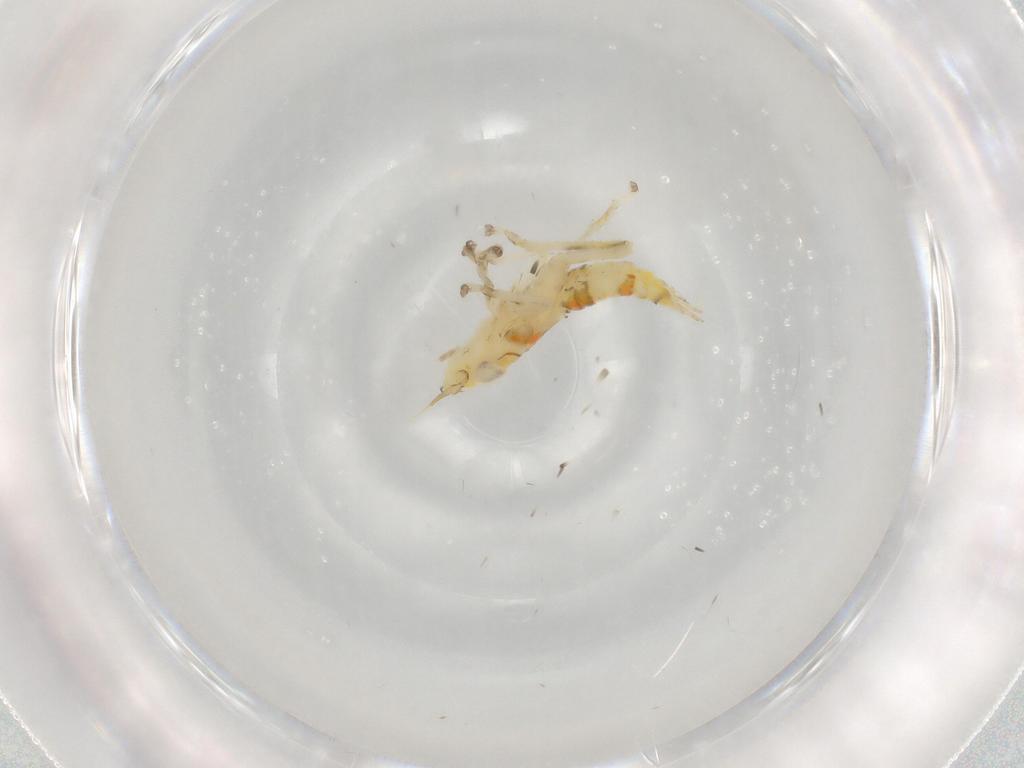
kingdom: Animalia
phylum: Arthropoda
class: Insecta
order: Hemiptera
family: Cicadellidae
